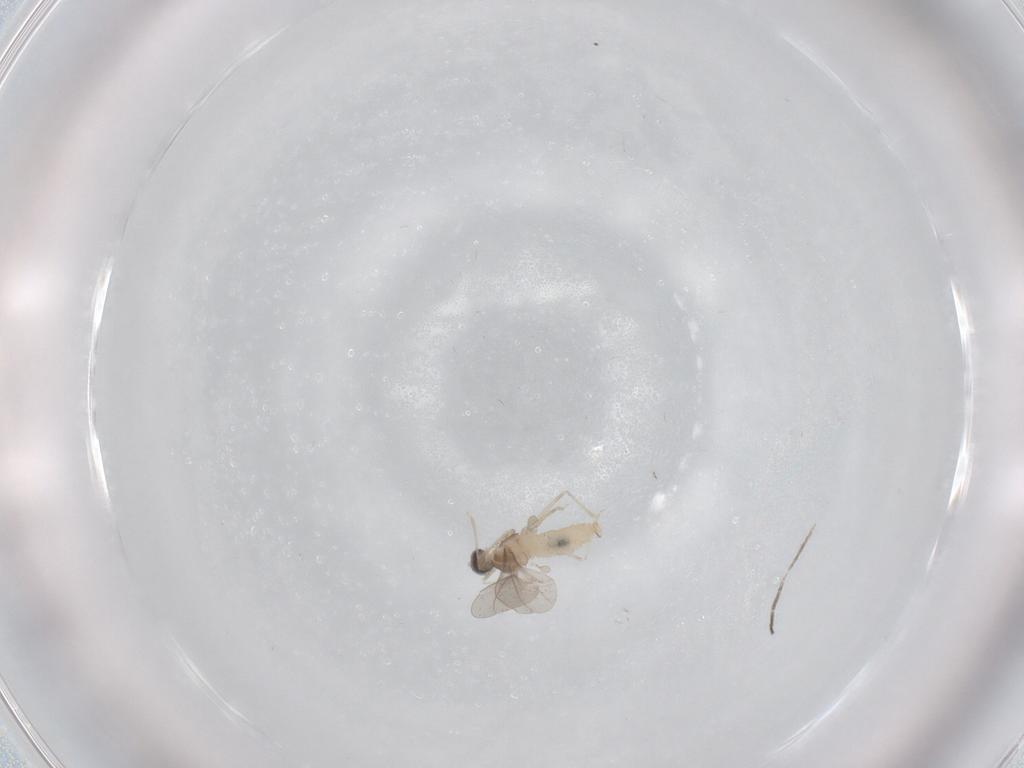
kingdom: Animalia
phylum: Arthropoda
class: Insecta
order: Diptera
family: Cecidomyiidae
